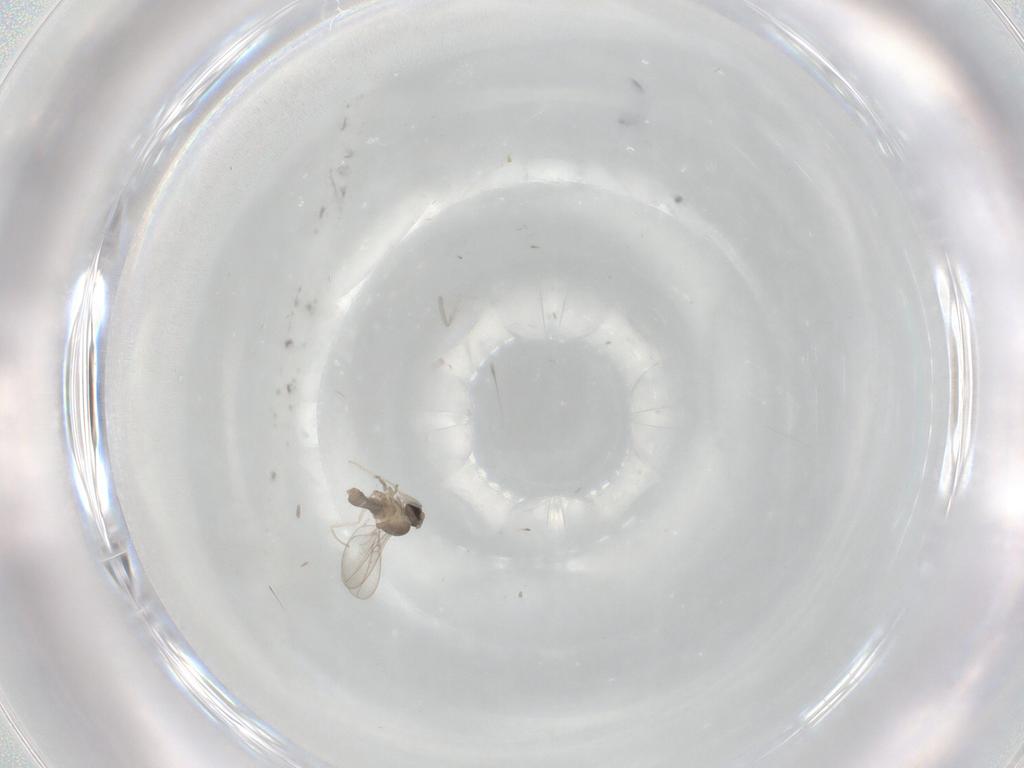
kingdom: Animalia
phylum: Arthropoda
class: Insecta
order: Diptera
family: Cecidomyiidae
